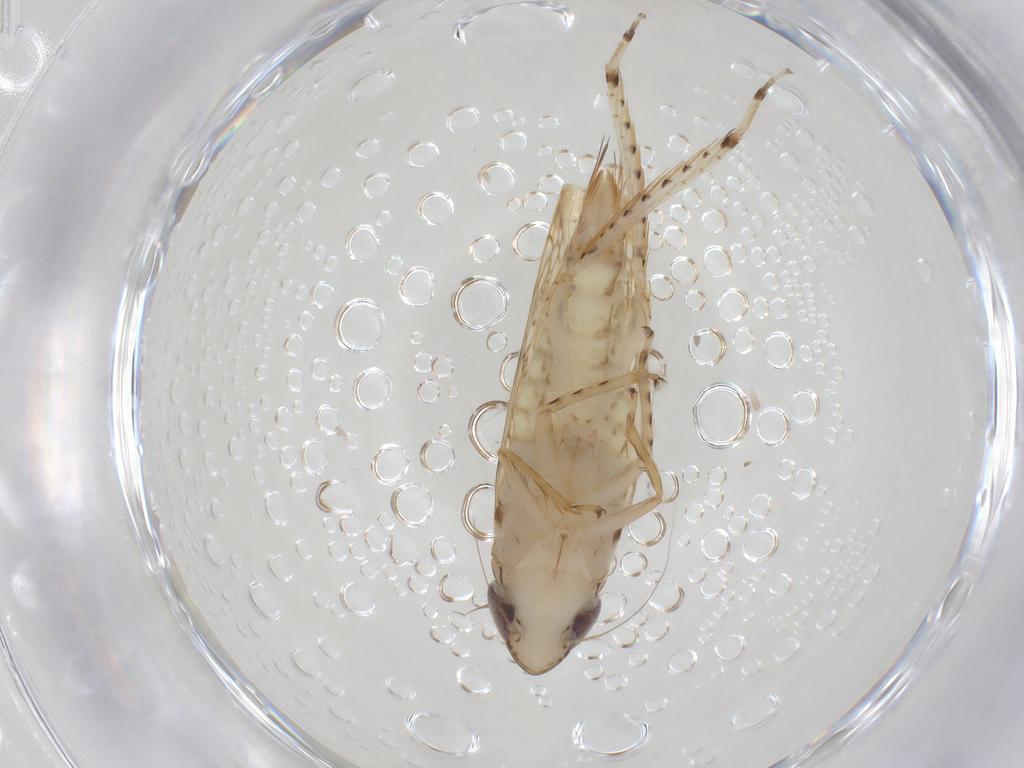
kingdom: Animalia
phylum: Arthropoda
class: Insecta
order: Hemiptera
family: Cicadellidae
